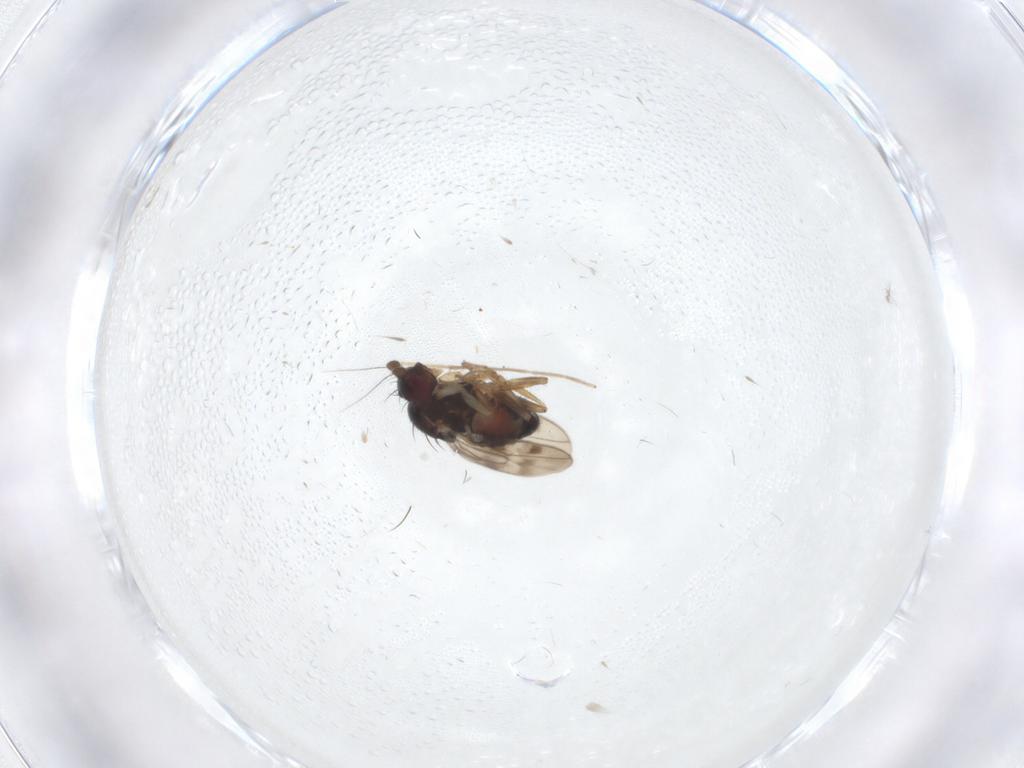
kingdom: Animalia
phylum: Arthropoda
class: Insecta
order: Diptera
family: Sphaeroceridae
